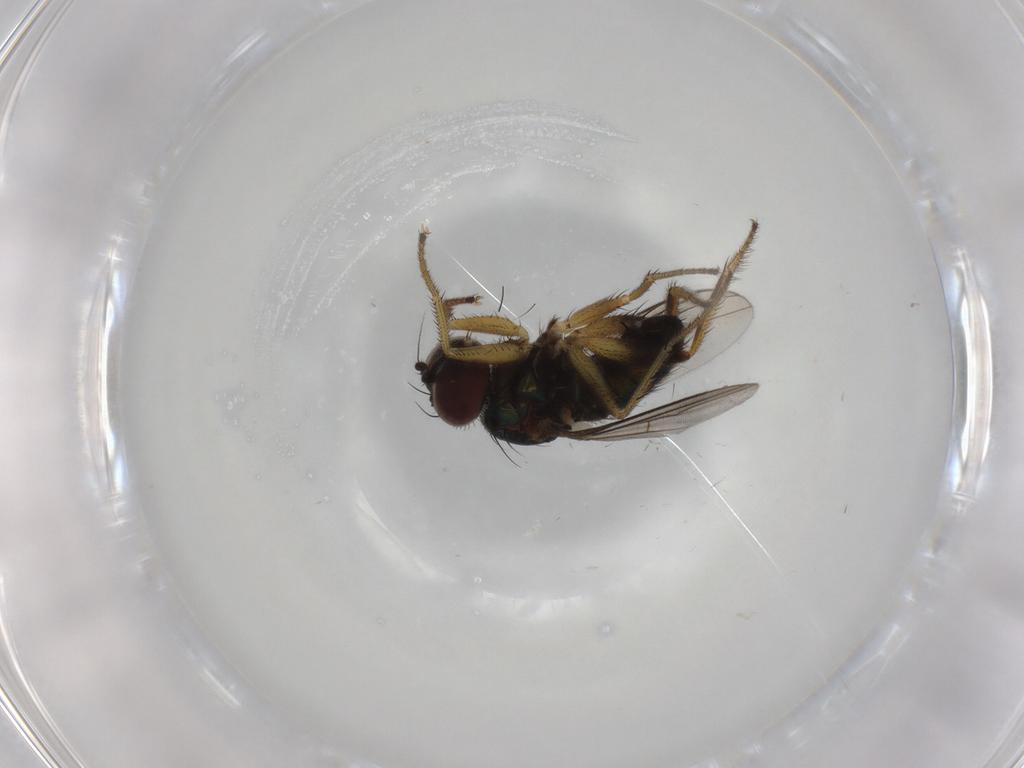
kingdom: Animalia
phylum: Arthropoda
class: Insecta
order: Diptera
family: Dolichopodidae
